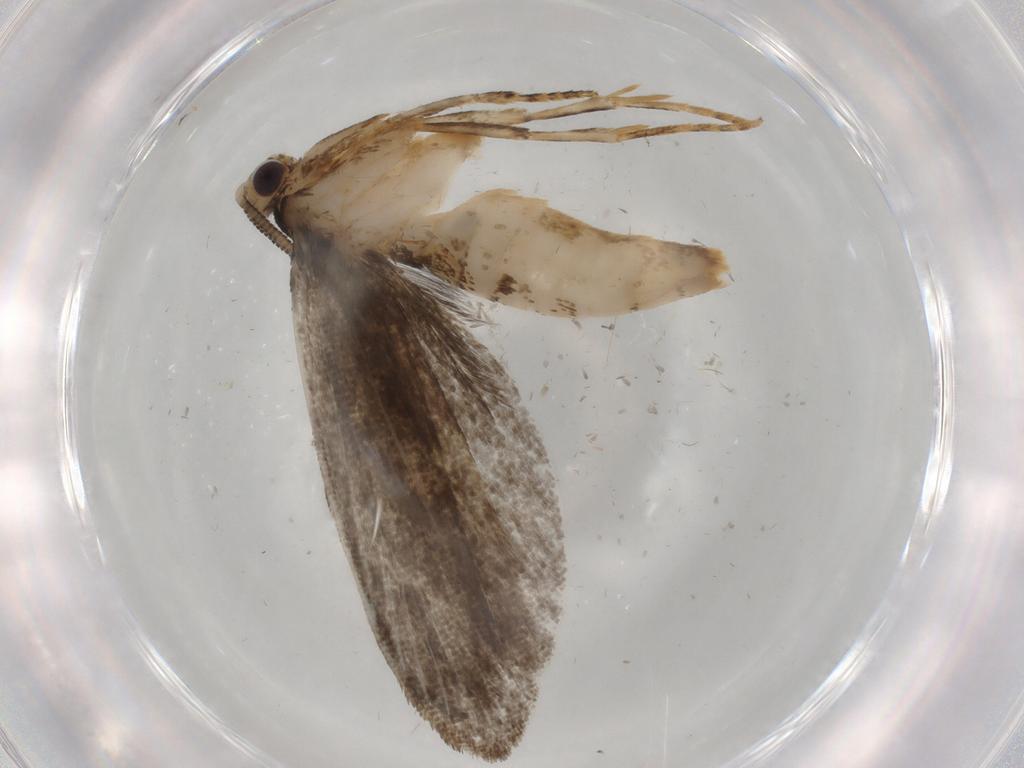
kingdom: Animalia
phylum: Arthropoda
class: Insecta
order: Lepidoptera
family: Tineidae
